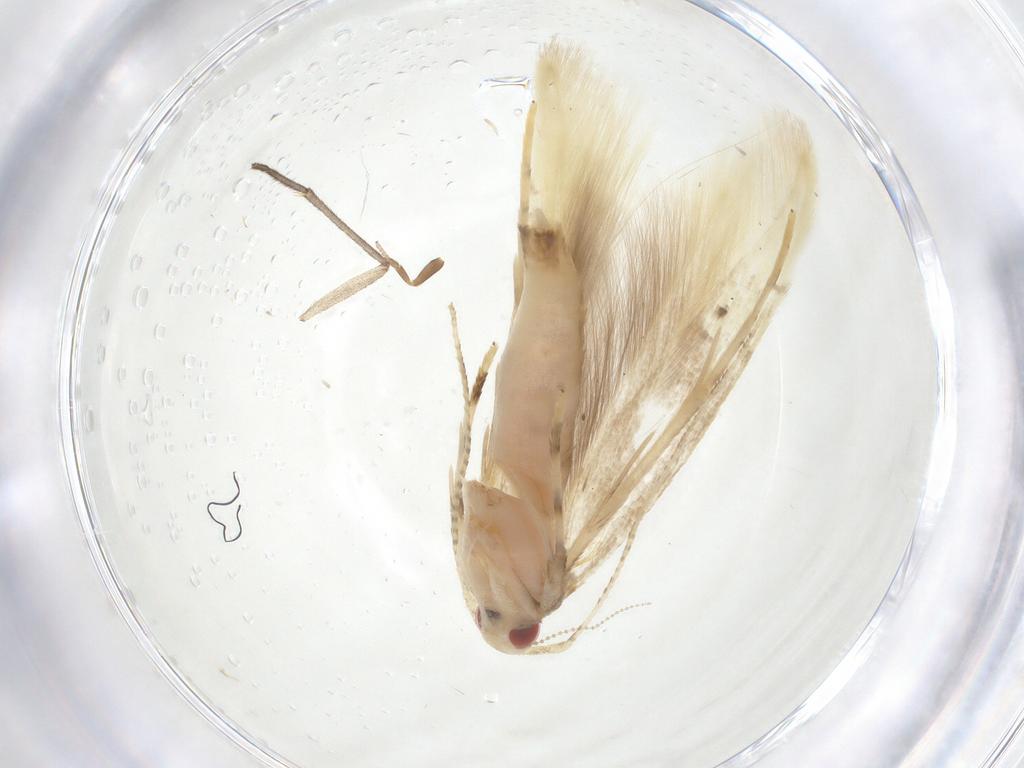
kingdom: Animalia
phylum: Arthropoda
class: Insecta
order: Lepidoptera
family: Cosmopterigidae
